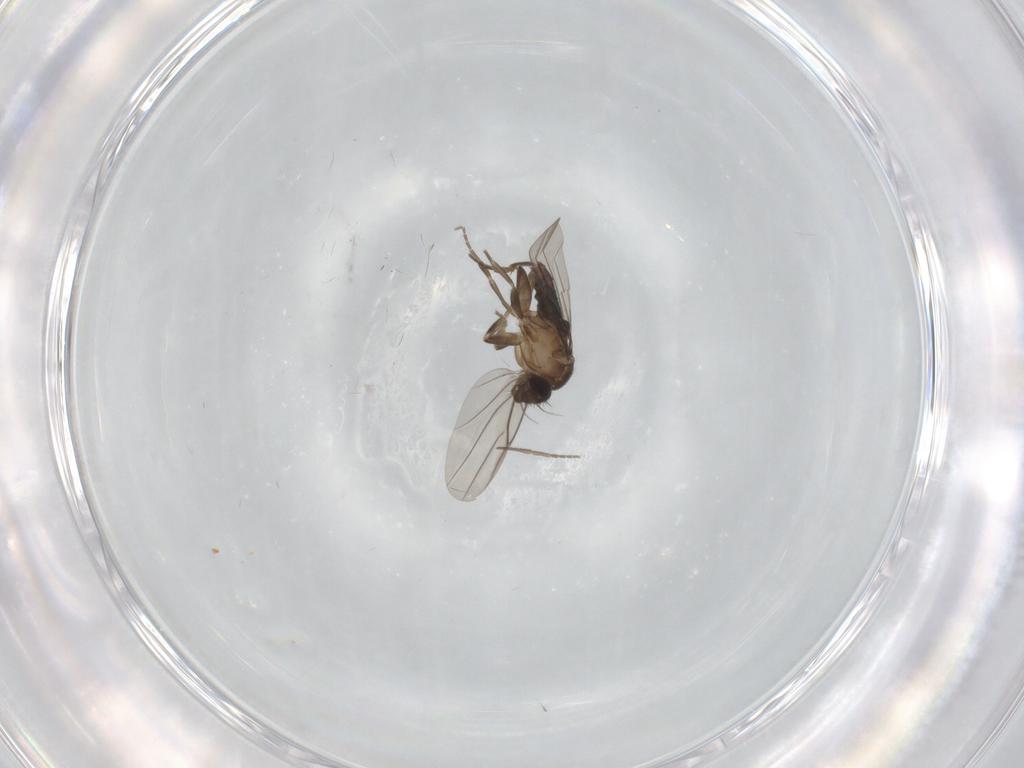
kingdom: Animalia
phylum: Arthropoda
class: Insecta
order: Diptera
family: Phoridae
